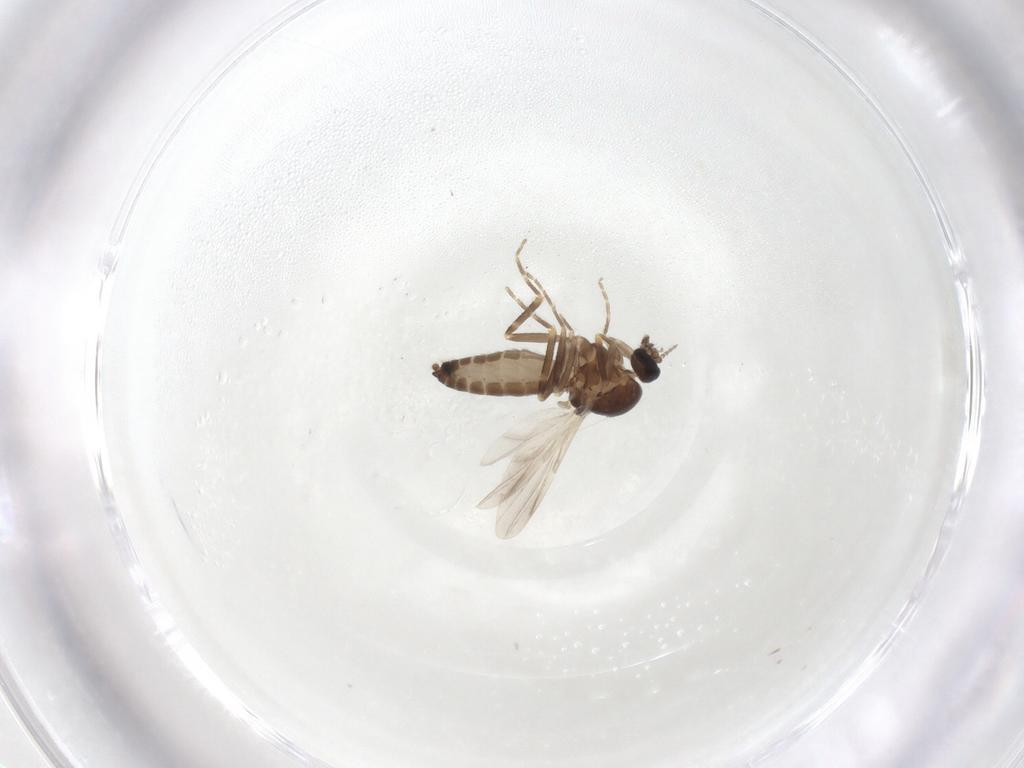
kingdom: Animalia
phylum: Arthropoda
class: Insecta
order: Diptera
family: Ceratopogonidae
